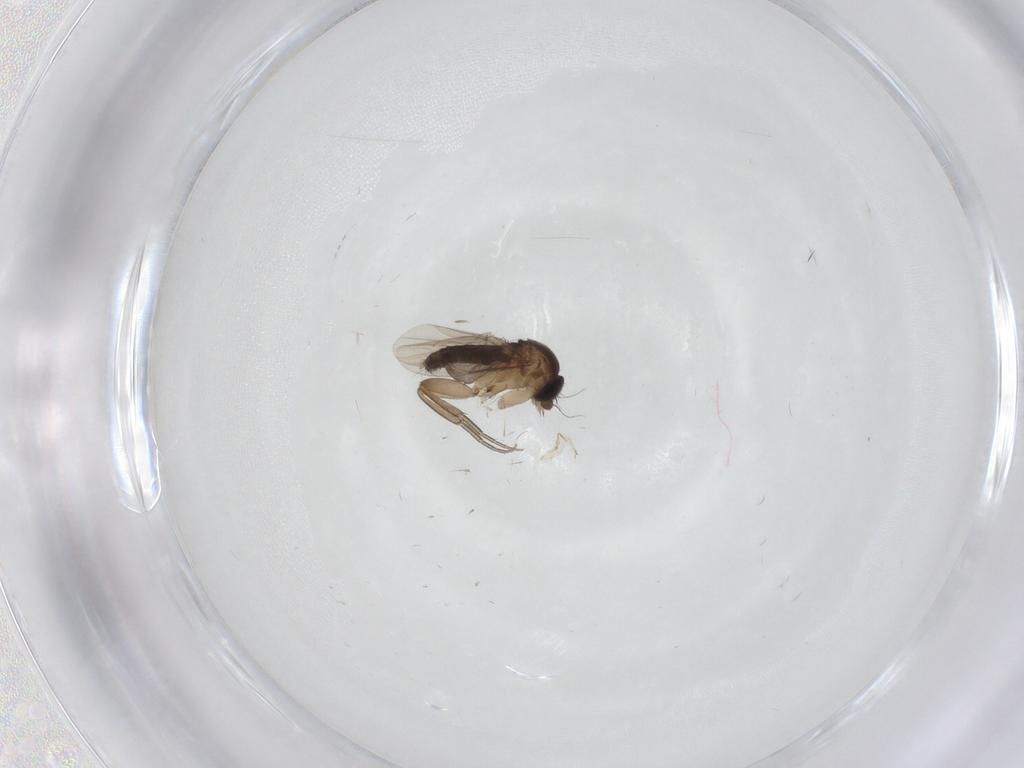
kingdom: Animalia
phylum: Arthropoda
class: Insecta
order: Diptera
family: Phoridae
